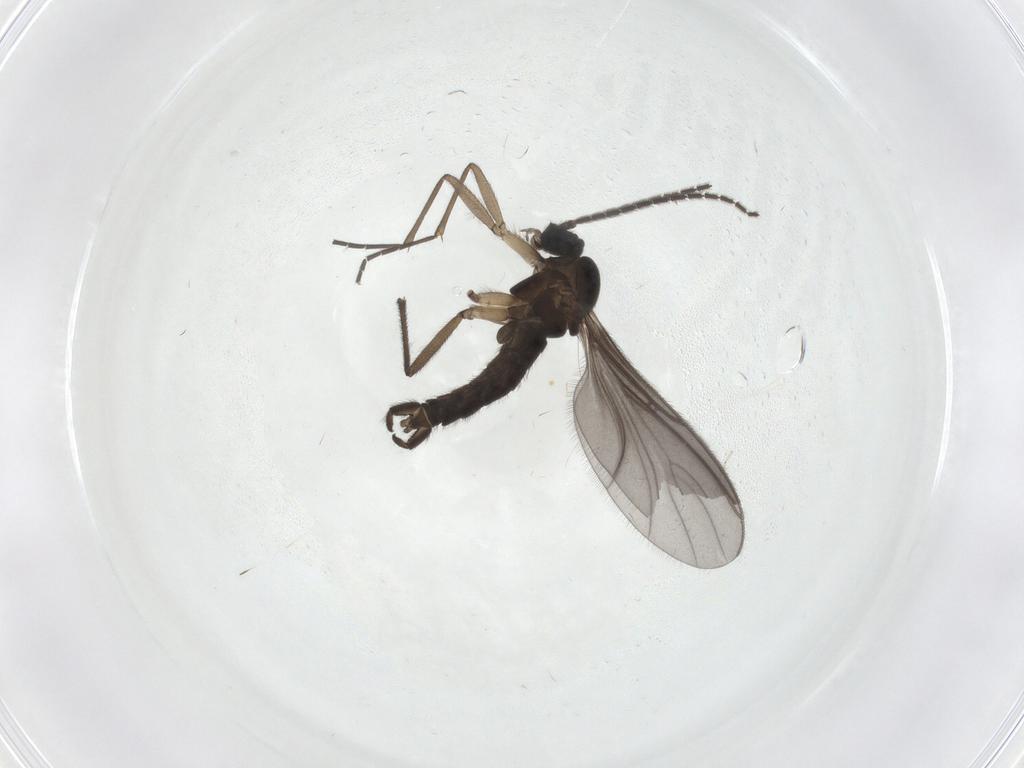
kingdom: Animalia
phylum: Arthropoda
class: Insecta
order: Diptera
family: Sciaridae
